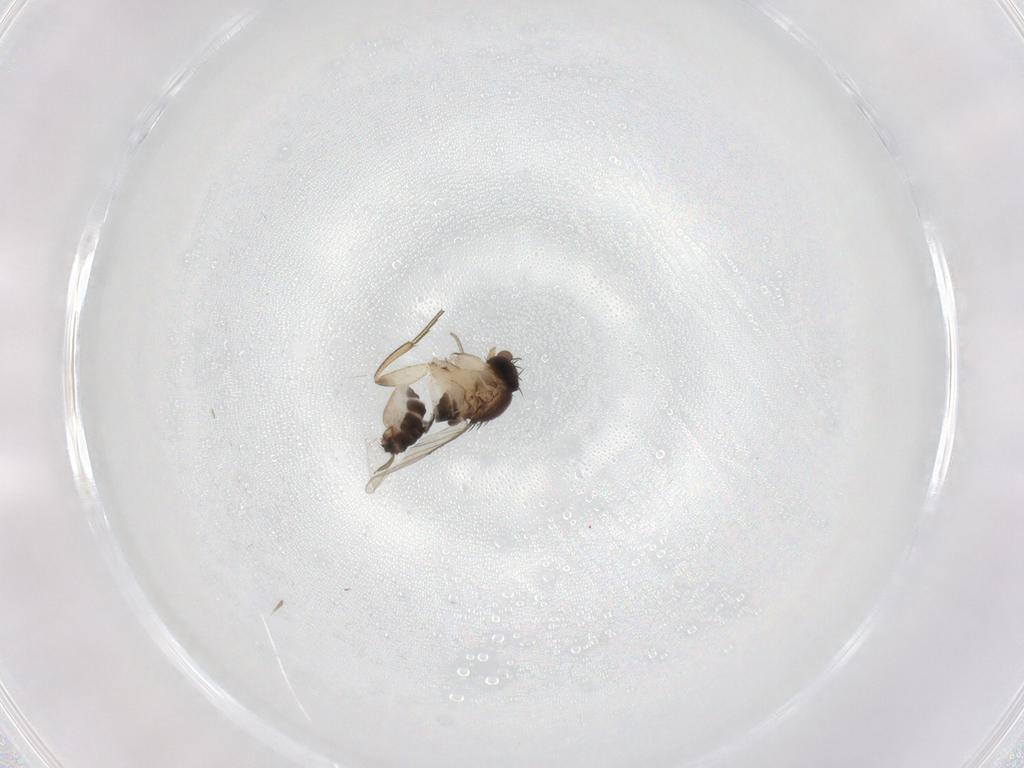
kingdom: Animalia
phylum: Arthropoda
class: Insecta
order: Diptera
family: Phoridae
